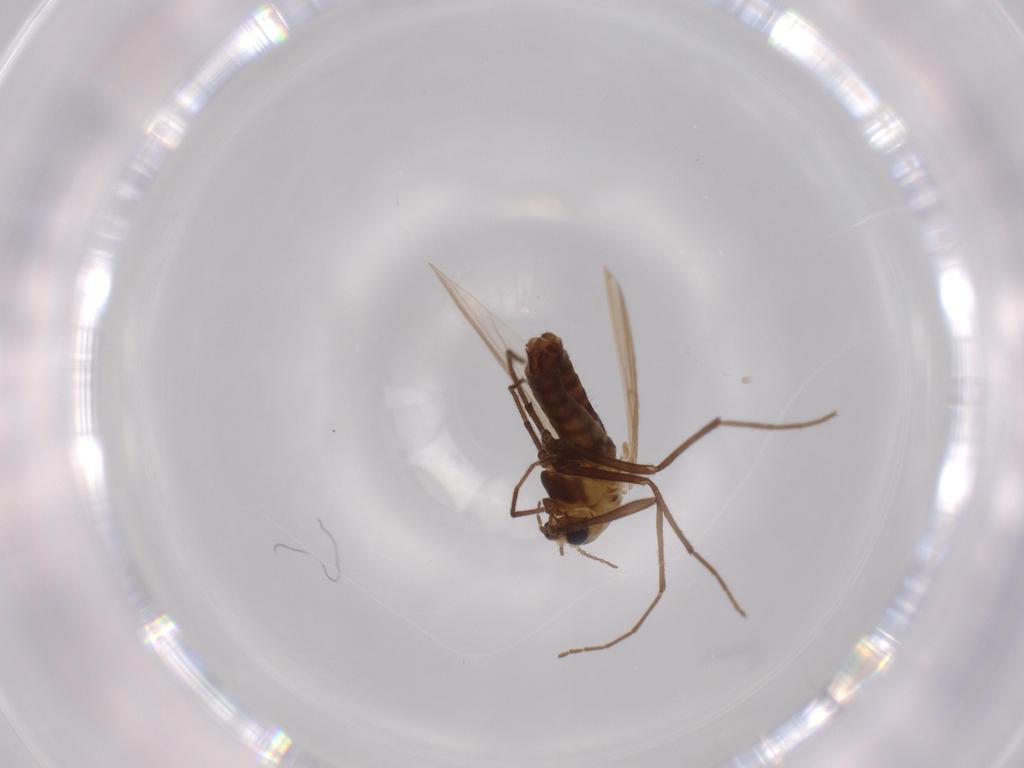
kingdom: Animalia
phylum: Arthropoda
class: Insecta
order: Diptera
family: Chironomidae
